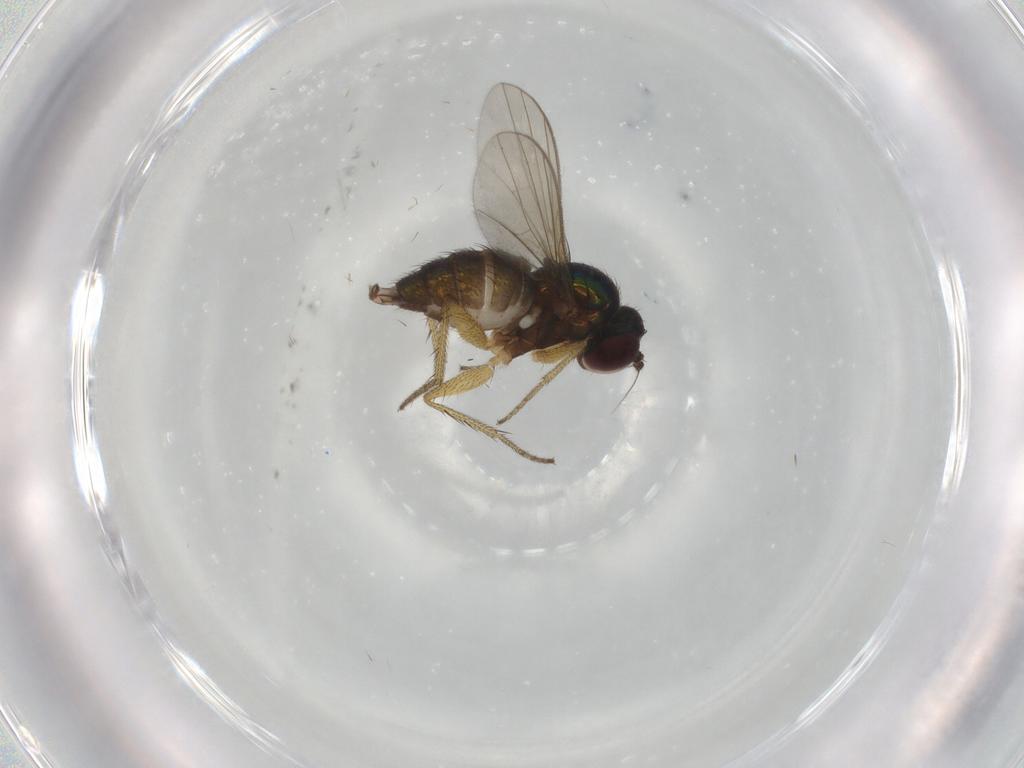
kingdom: Animalia
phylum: Arthropoda
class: Insecta
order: Diptera
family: Dolichopodidae
